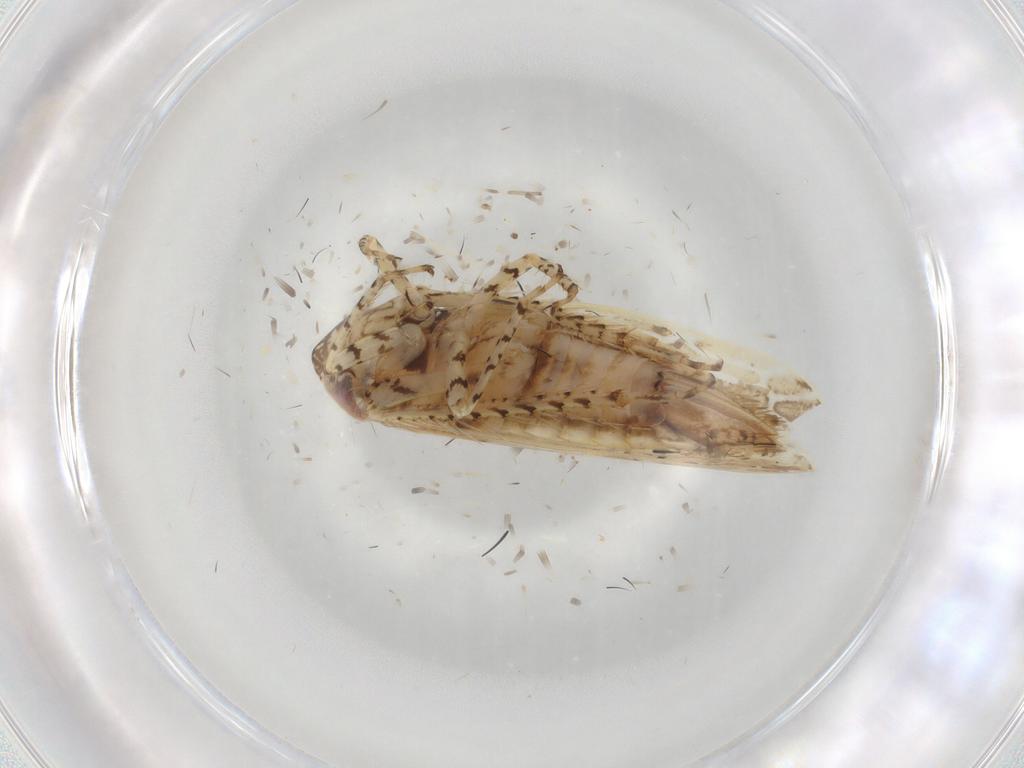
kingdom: Animalia
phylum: Arthropoda
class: Insecta
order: Hemiptera
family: Cicadellidae
